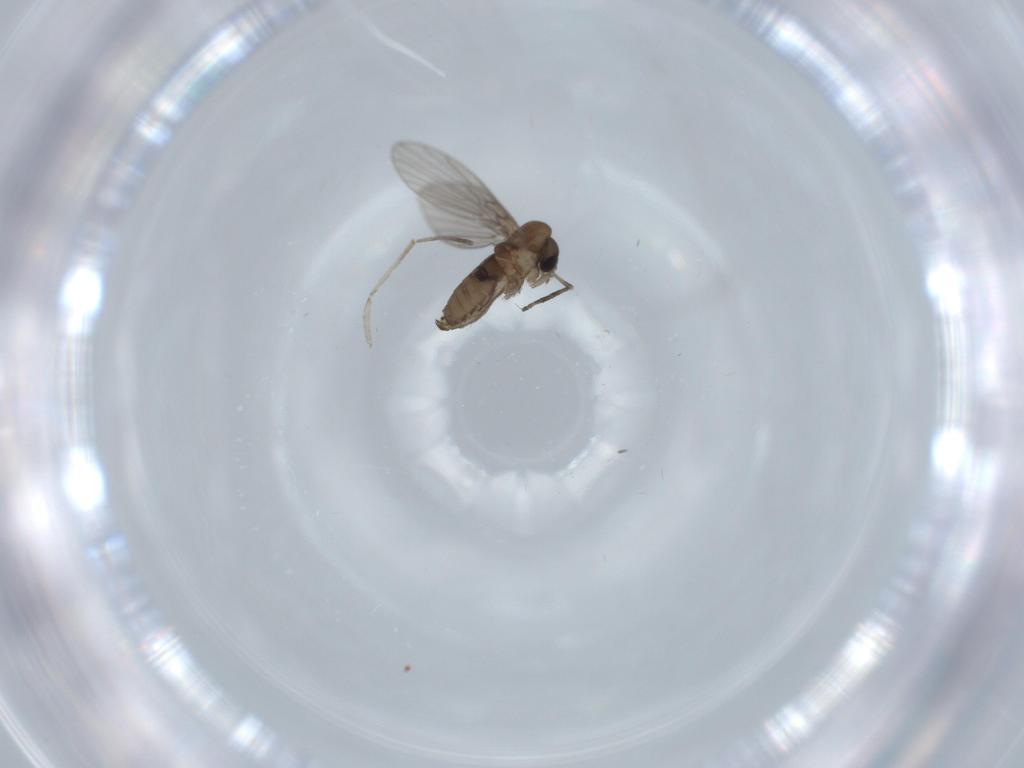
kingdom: Animalia
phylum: Arthropoda
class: Insecta
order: Diptera
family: Psychodidae
